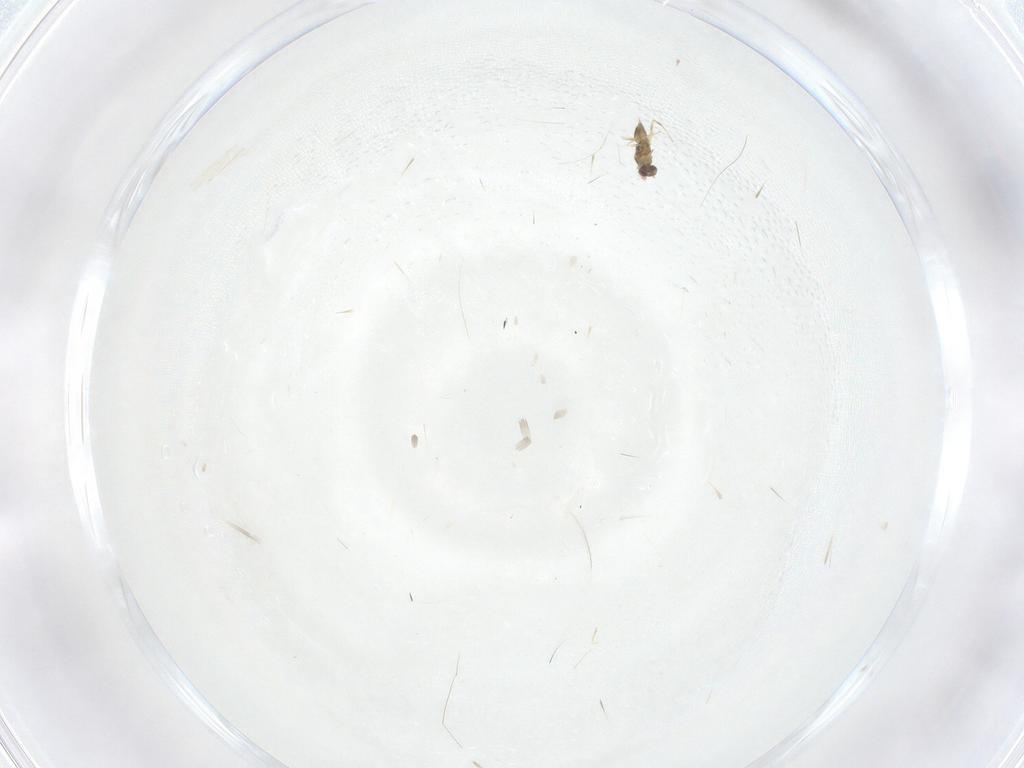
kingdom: Animalia
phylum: Arthropoda
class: Insecta
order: Hymenoptera
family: Mymaridae
